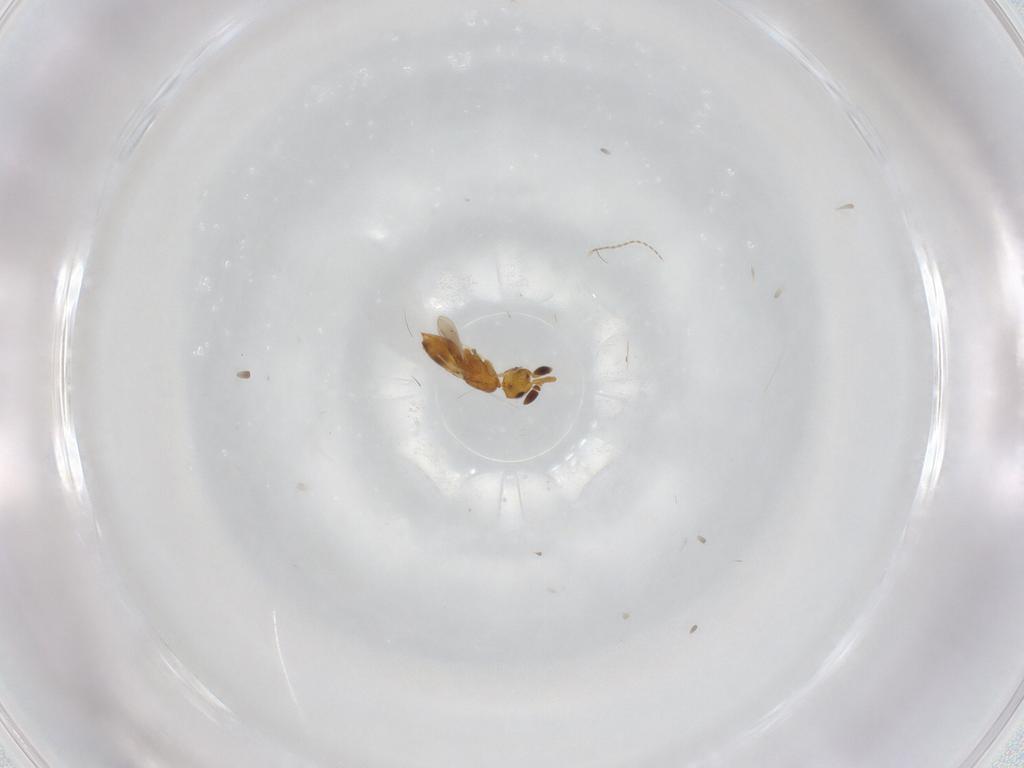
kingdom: Animalia
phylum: Arthropoda
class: Insecta
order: Hymenoptera
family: Ceraphronidae
